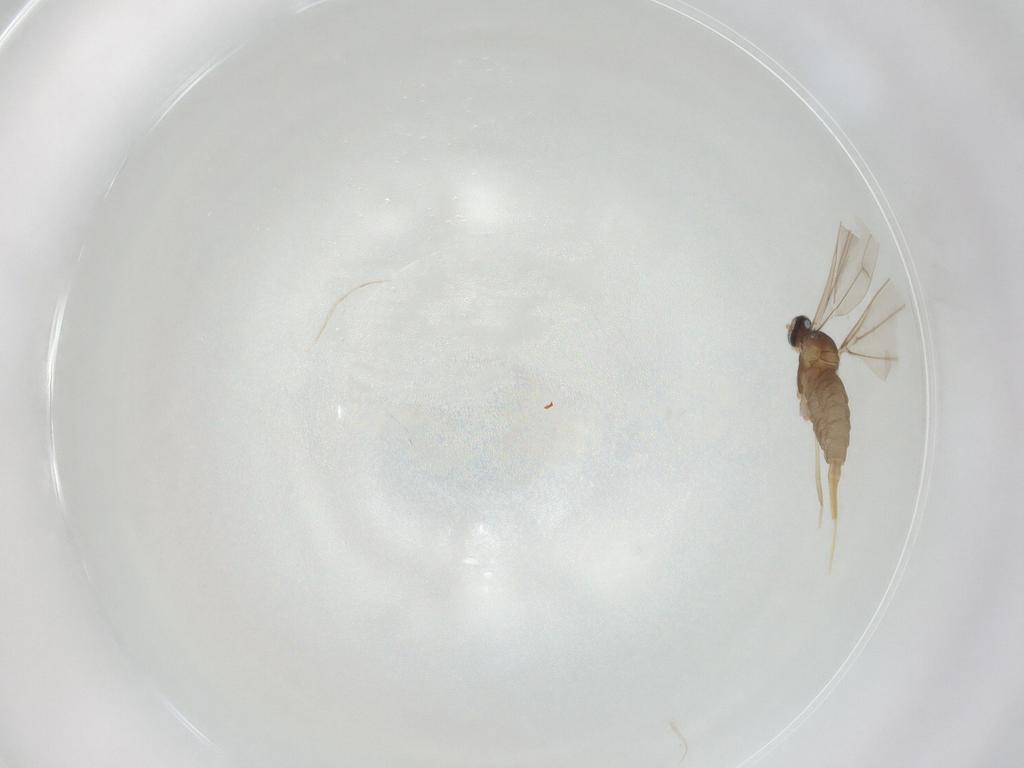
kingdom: Animalia
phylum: Arthropoda
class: Insecta
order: Diptera
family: Cecidomyiidae
